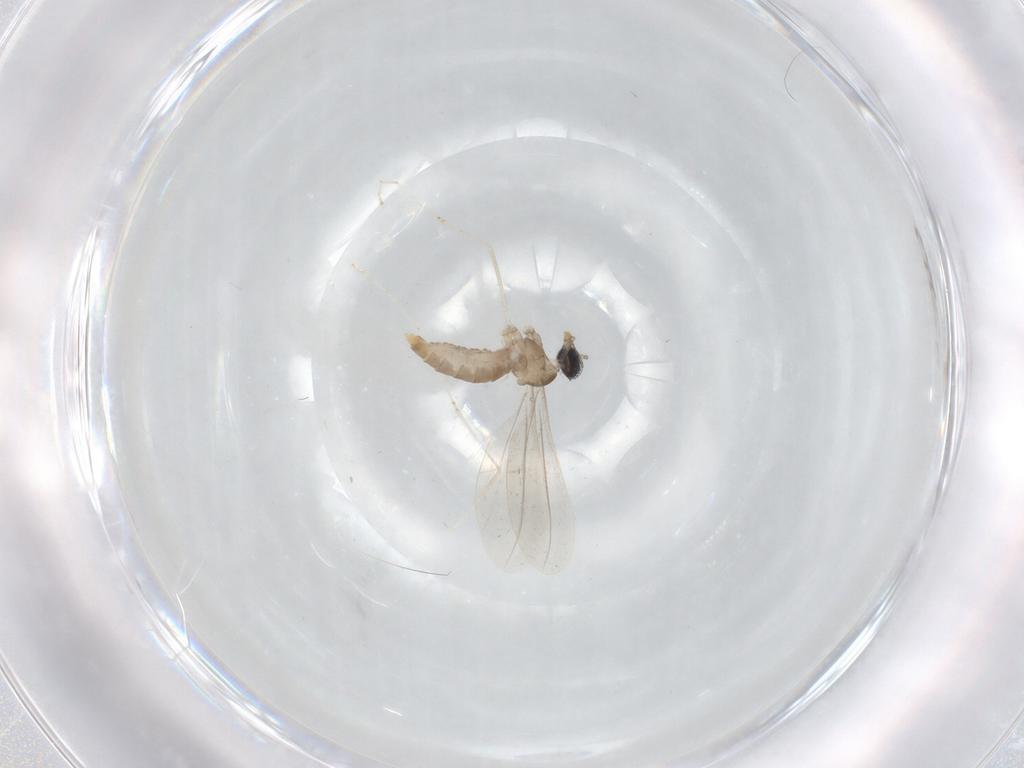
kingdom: Animalia
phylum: Arthropoda
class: Insecta
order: Diptera
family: Cecidomyiidae
